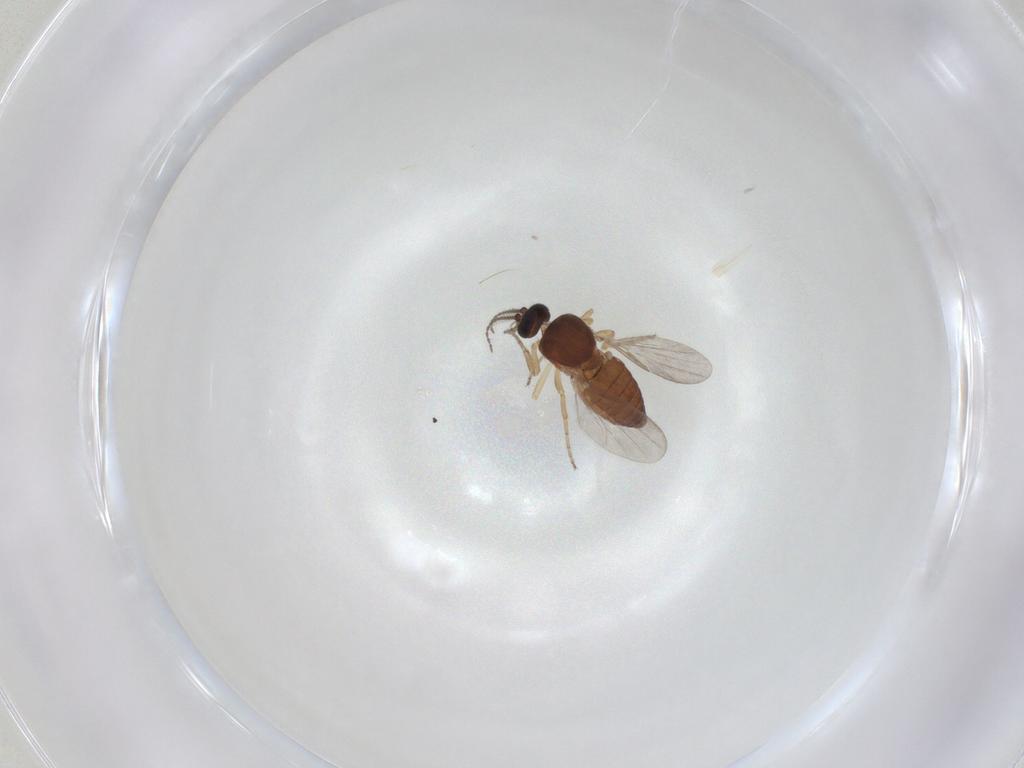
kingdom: Animalia
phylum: Arthropoda
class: Insecta
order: Diptera
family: Ceratopogonidae
